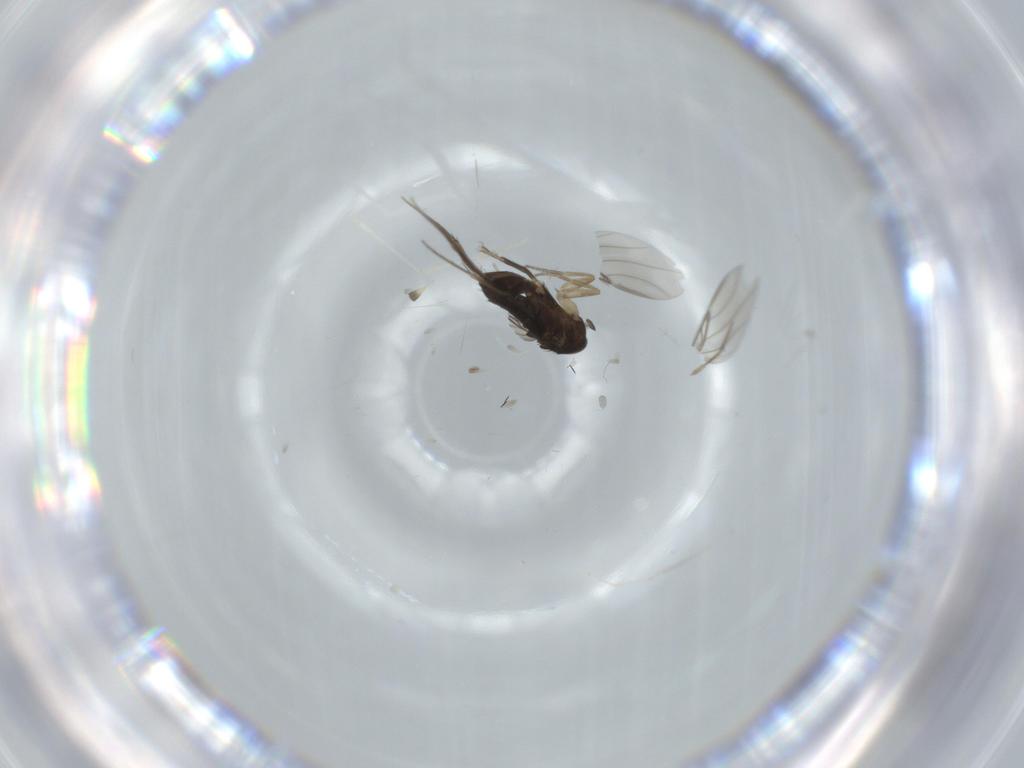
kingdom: Animalia
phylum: Arthropoda
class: Insecta
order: Diptera
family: Phoridae
